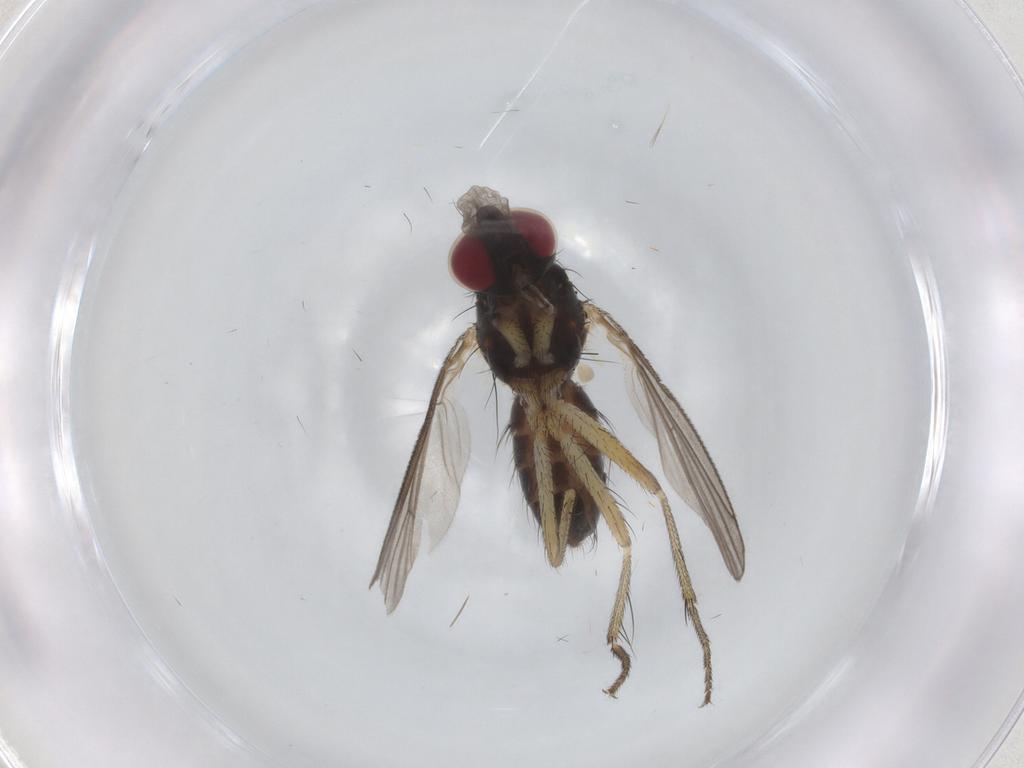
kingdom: Animalia
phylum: Arthropoda
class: Insecta
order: Diptera
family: Muscidae
